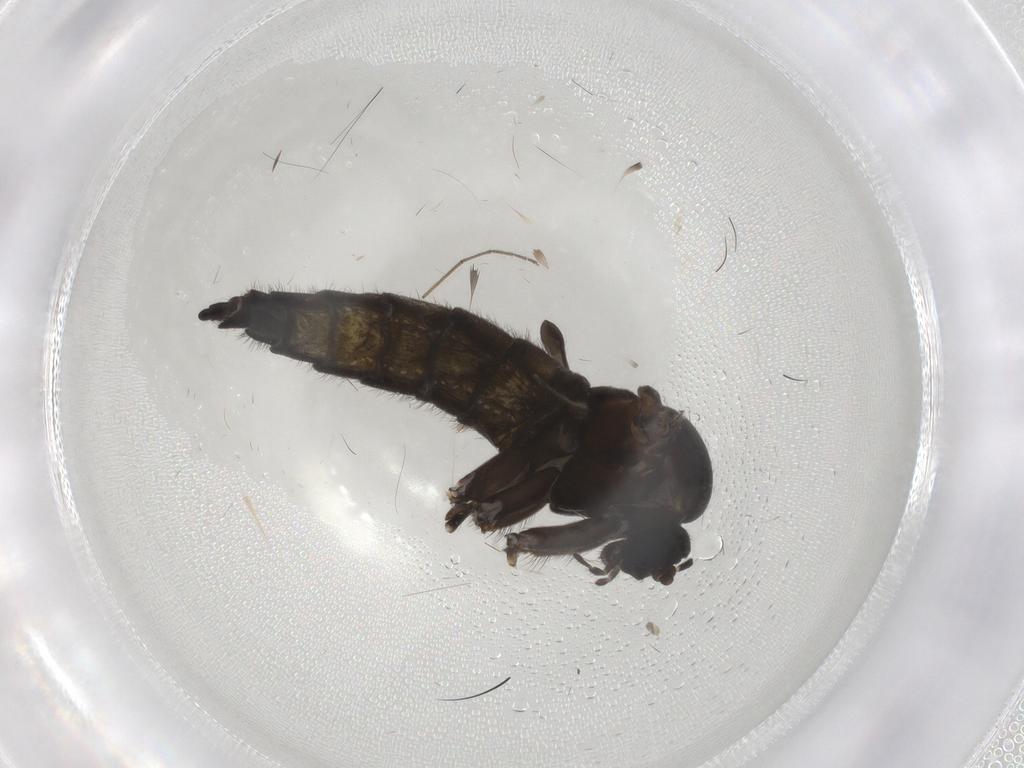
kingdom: Animalia
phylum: Arthropoda
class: Insecta
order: Diptera
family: Sciaridae
